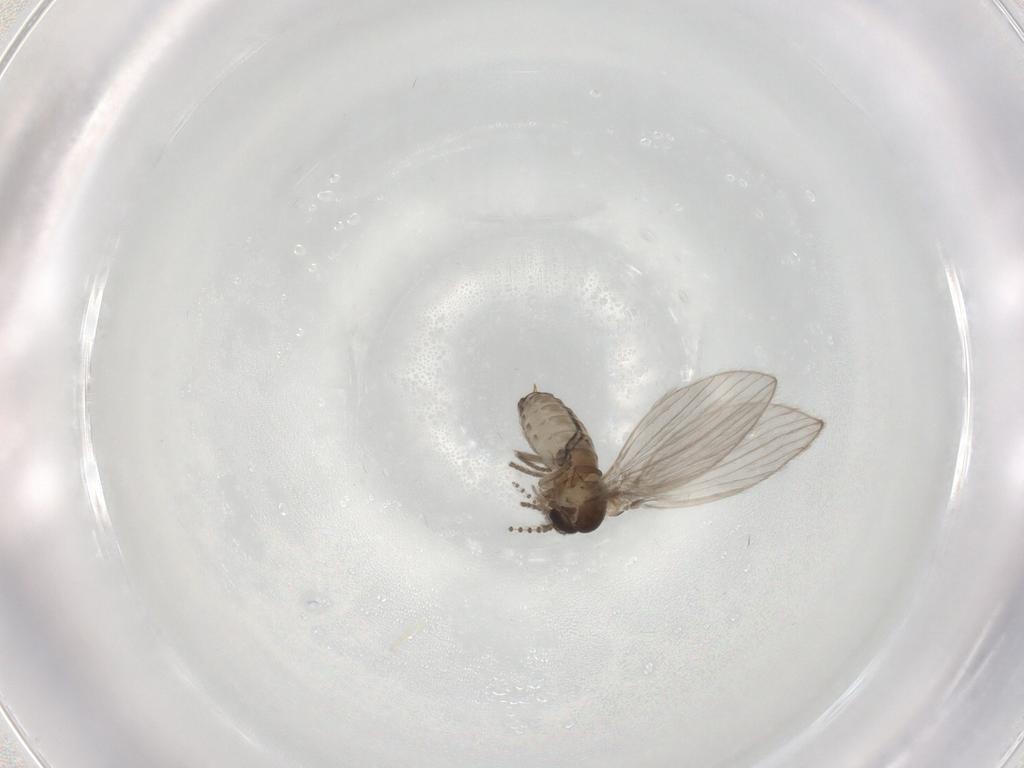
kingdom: Animalia
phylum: Arthropoda
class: Insecta
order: Diptera
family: Psychodidae
